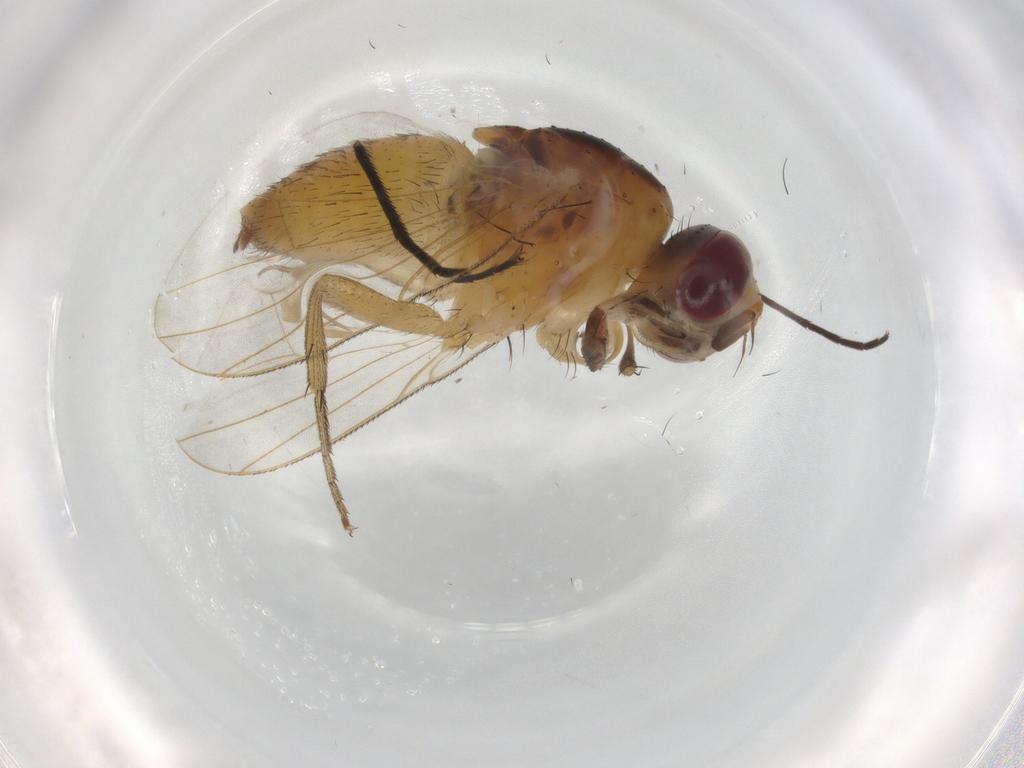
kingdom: Animalia
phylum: Arthropoda
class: Insecta
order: Diptera
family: Muscidae
